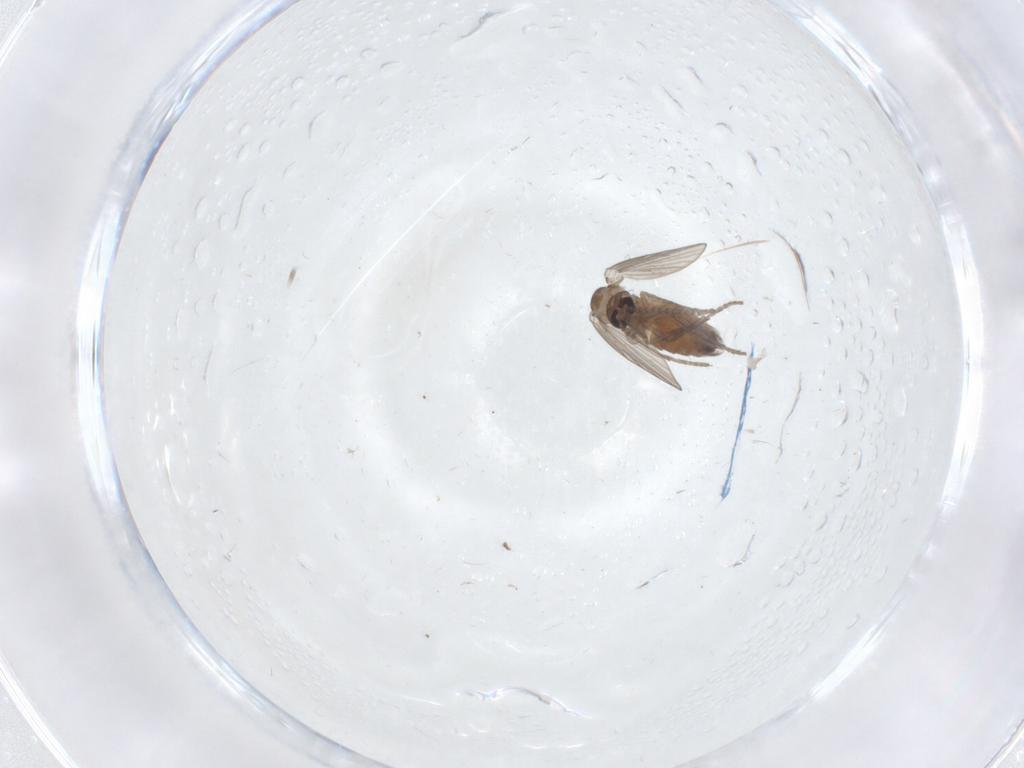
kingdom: Animalia
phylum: Arthropoda
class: Insecta
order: Diptera
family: Psychodidae
